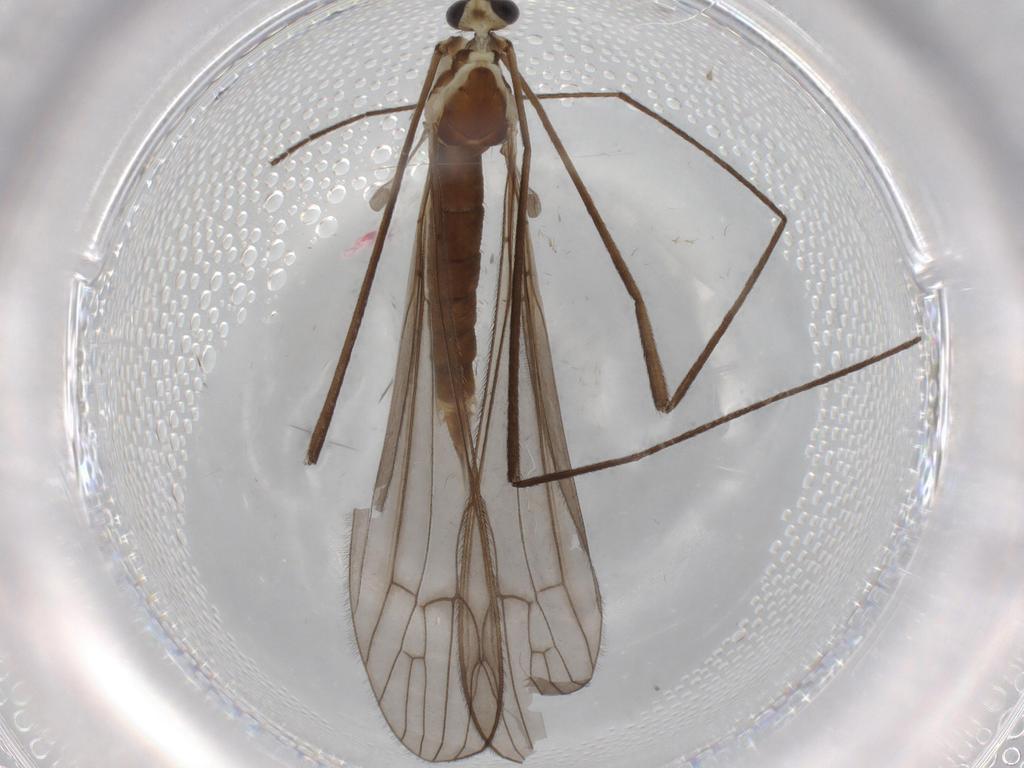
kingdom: Animalia
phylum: Arthropoda
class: Insecta
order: Diptera
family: Cecidomyiidae
